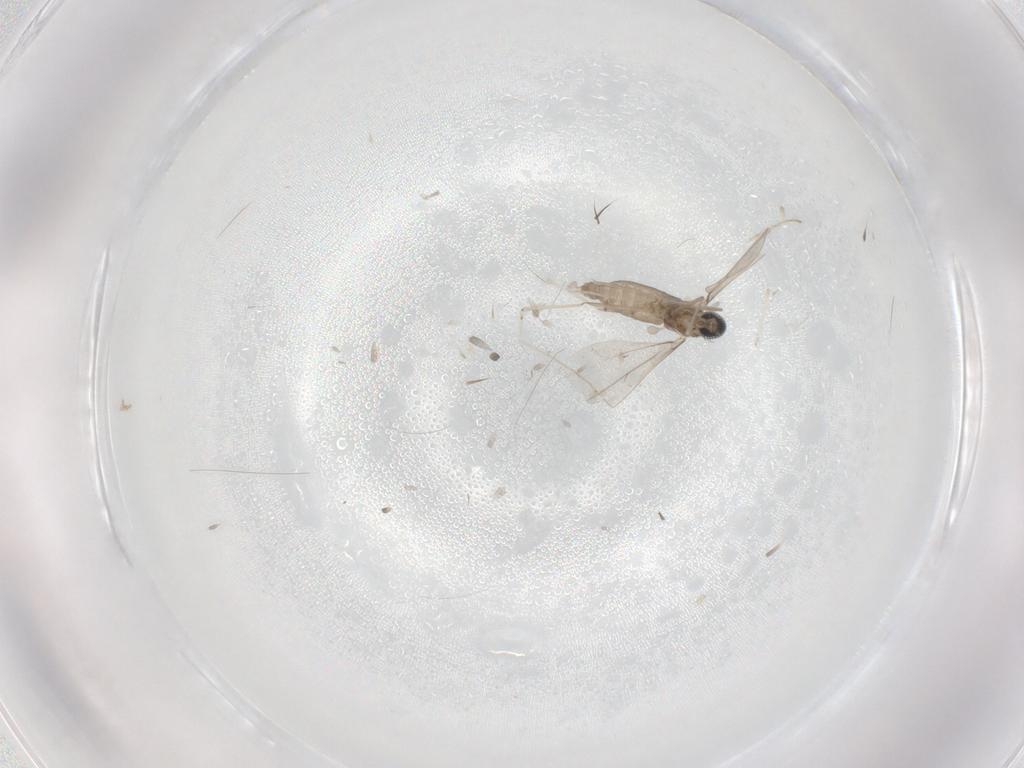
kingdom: Animalia
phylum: Arthropoda
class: Insecta
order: Diptera
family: Cecidomyiidae
